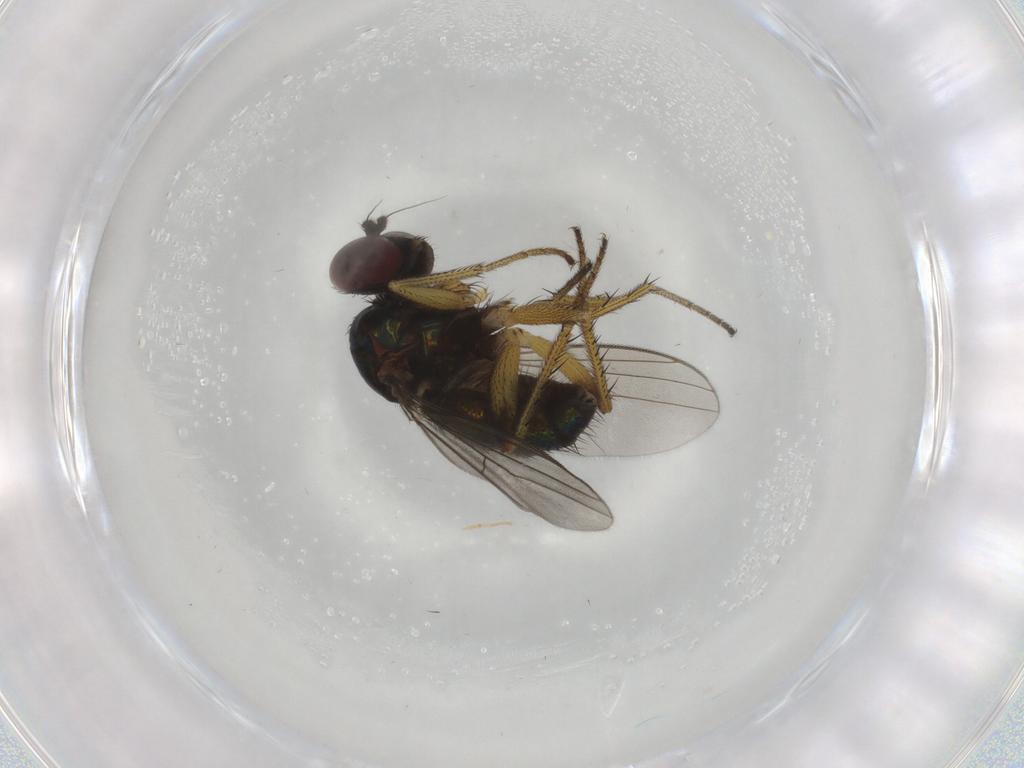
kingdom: Animalia
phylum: Arthropoda
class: Insecta
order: Diptera
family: Dolichopodidae
